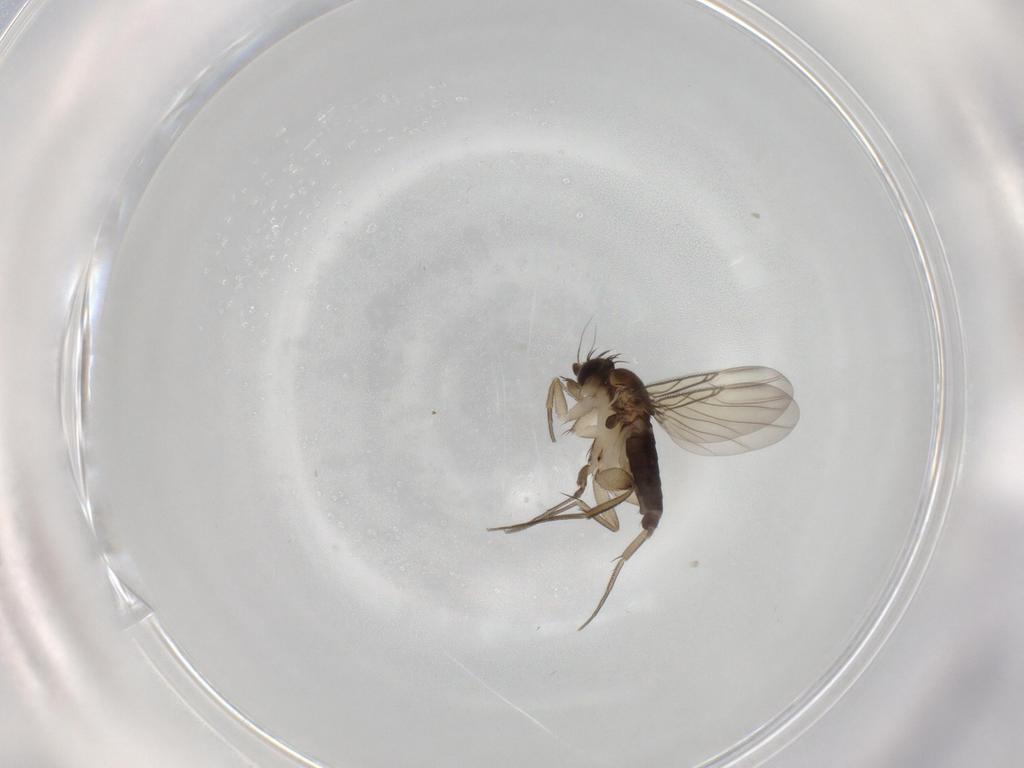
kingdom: Animalia
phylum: Arthropoda
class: Insecta
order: Diptera
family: Phoridae
